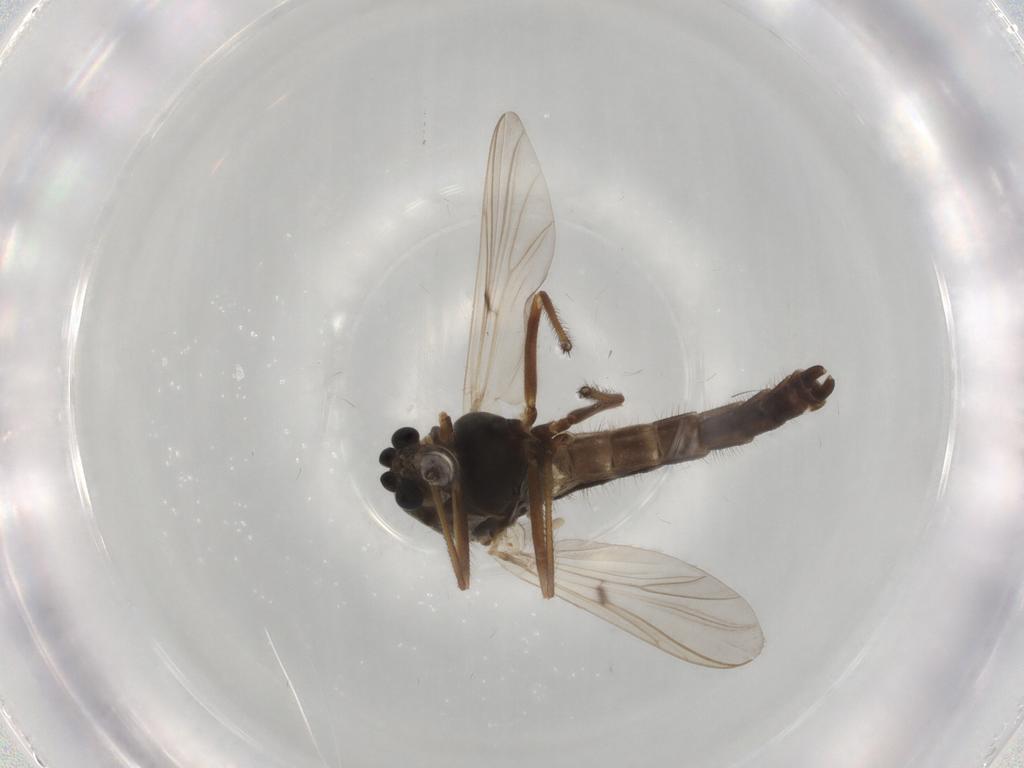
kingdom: Animalia
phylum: Arthropoda
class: Insecta
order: Diptera
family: Chironomidae
